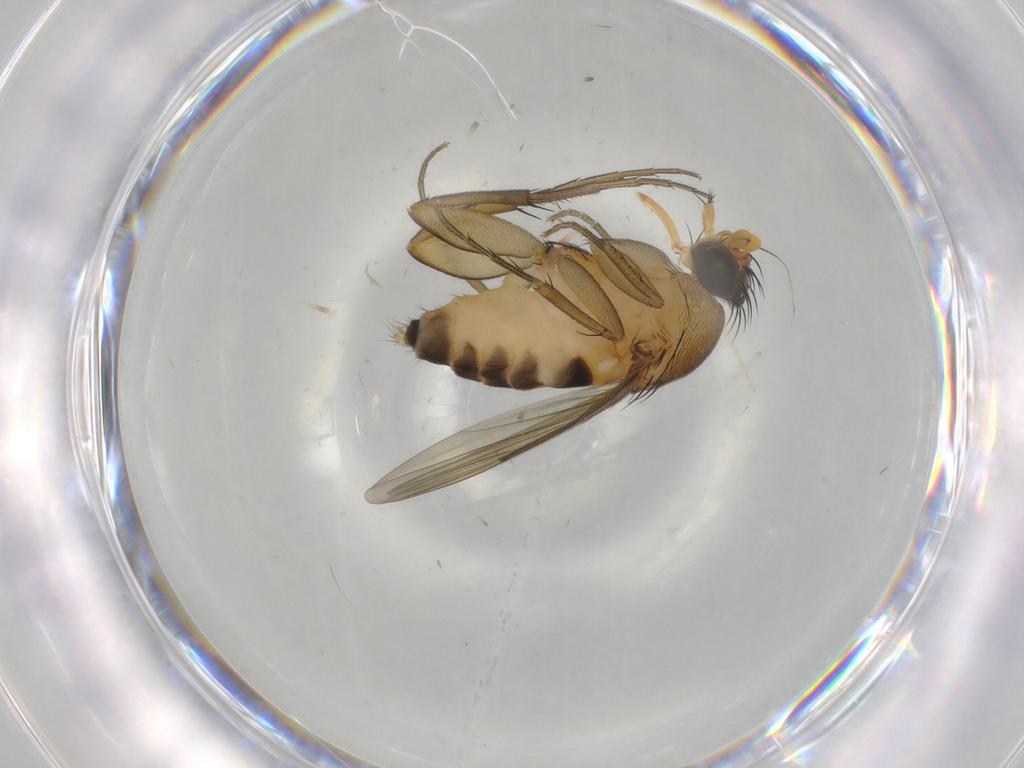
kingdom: Animalia
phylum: Arthropoda
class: Insecta
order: Diptera
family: Phoridae
